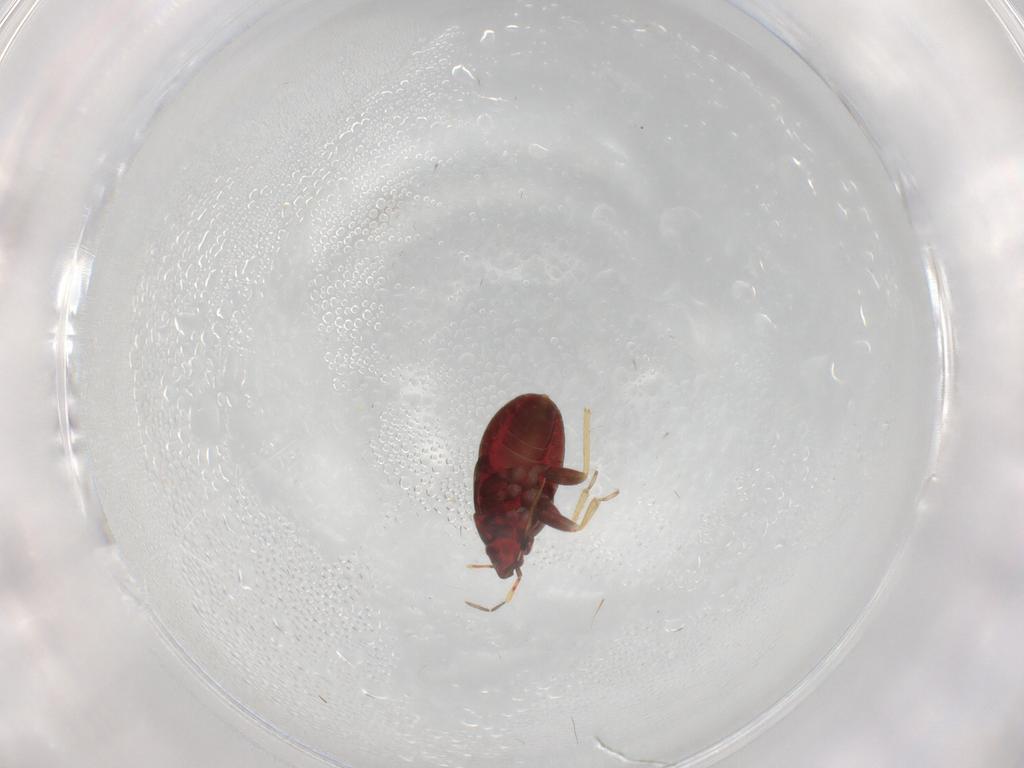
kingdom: Animalia
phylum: Arthropoda
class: Insecta
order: Hemiptera
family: Anthocoridae
